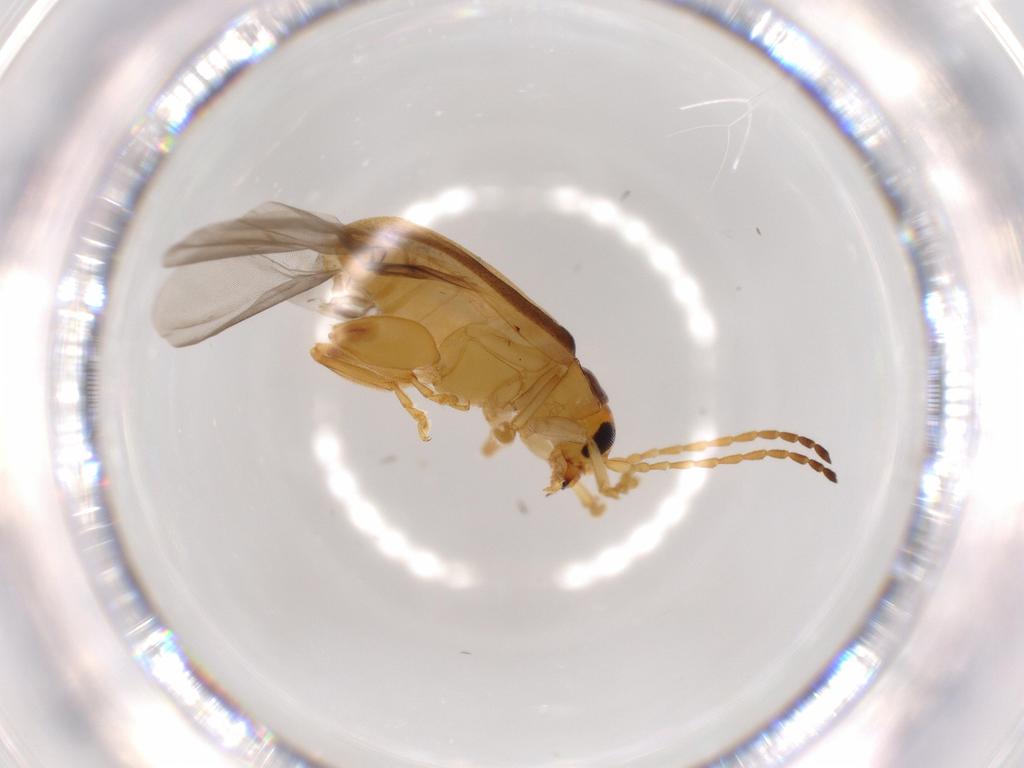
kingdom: Animalia
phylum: Arthropoda
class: Insecta
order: Coleoptera
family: Chrysomelidae
